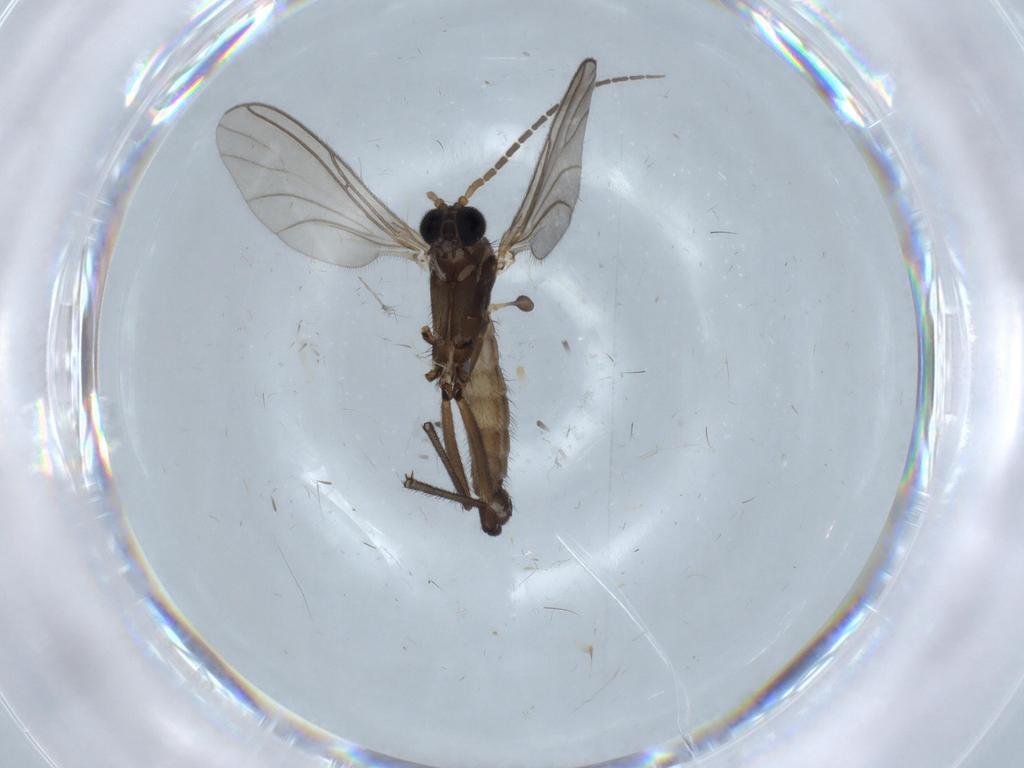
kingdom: Animalia
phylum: Arthropoda
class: Insecta
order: Diptera
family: Sciaridae
